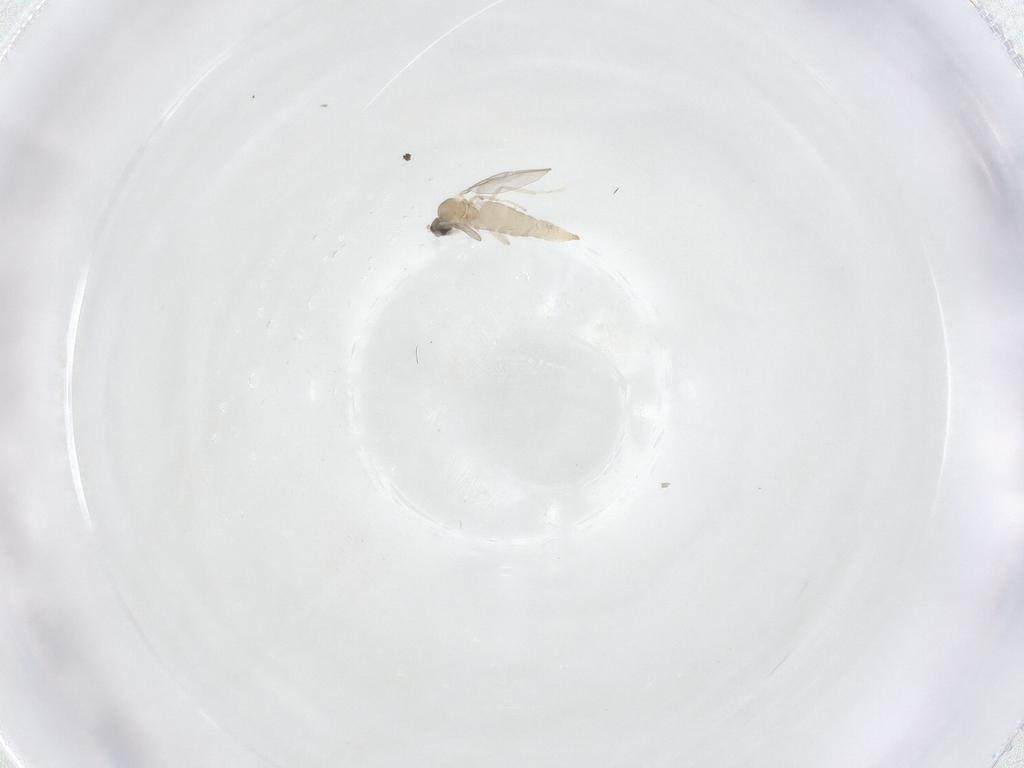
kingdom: Animalia
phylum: Arthropoda
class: Insecta
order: Diptera
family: Cecidomyiidae
